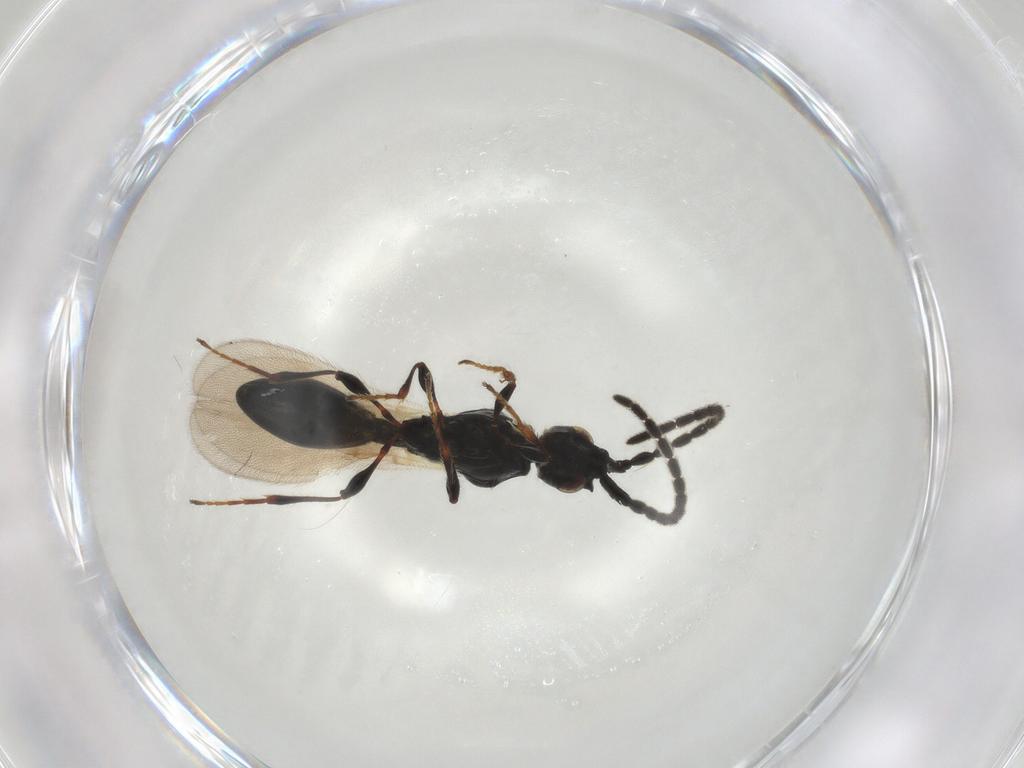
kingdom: Animalia
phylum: Arthropoda
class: Insecta
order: Hymenoptera
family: Diapriidae
